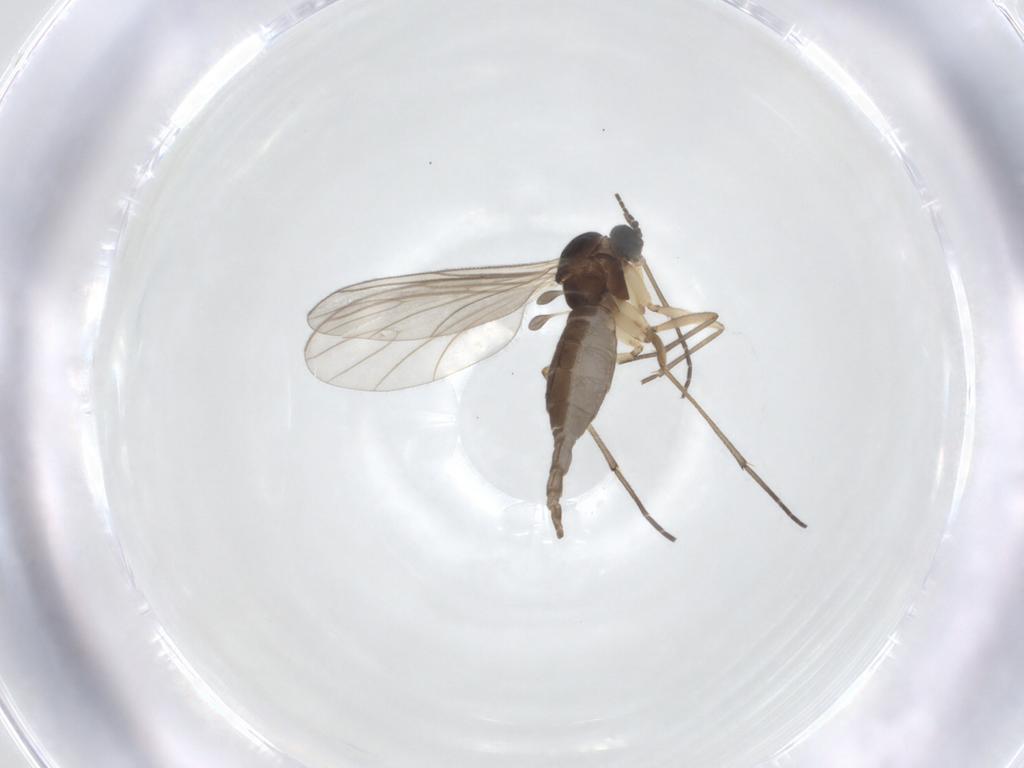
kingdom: Animalia
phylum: Arthropoda
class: Insecta
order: Diptera
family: Sciaridae
